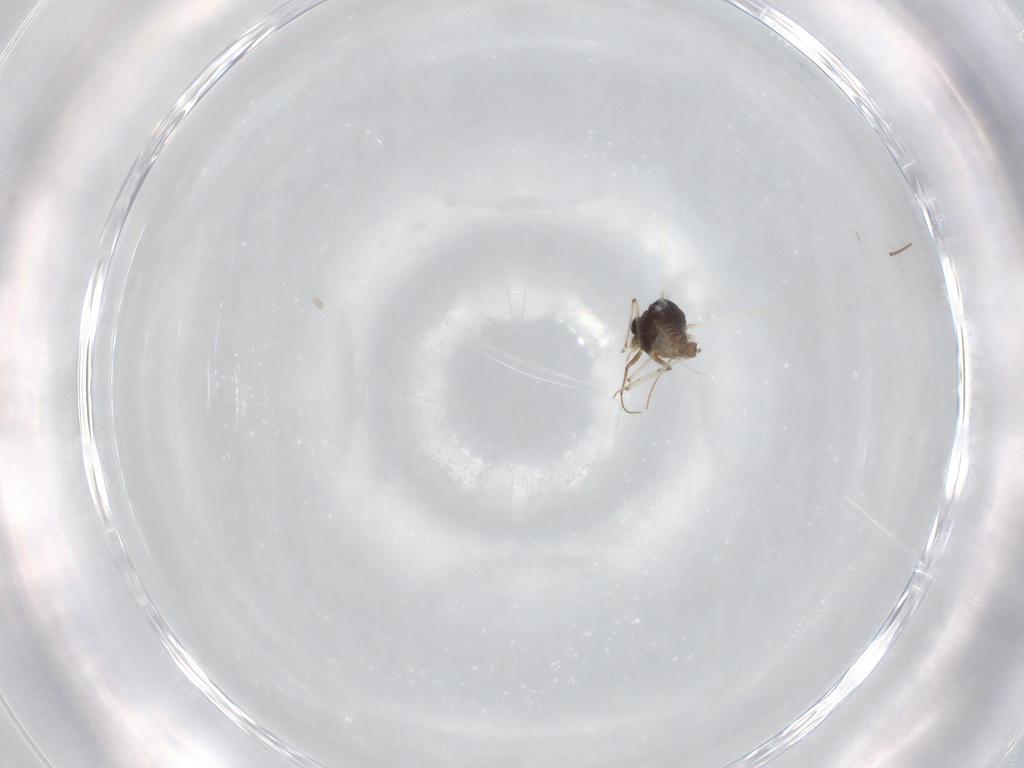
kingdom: Animalia
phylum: Arthropoda
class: Insecta
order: Diptera
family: Chironomidae
